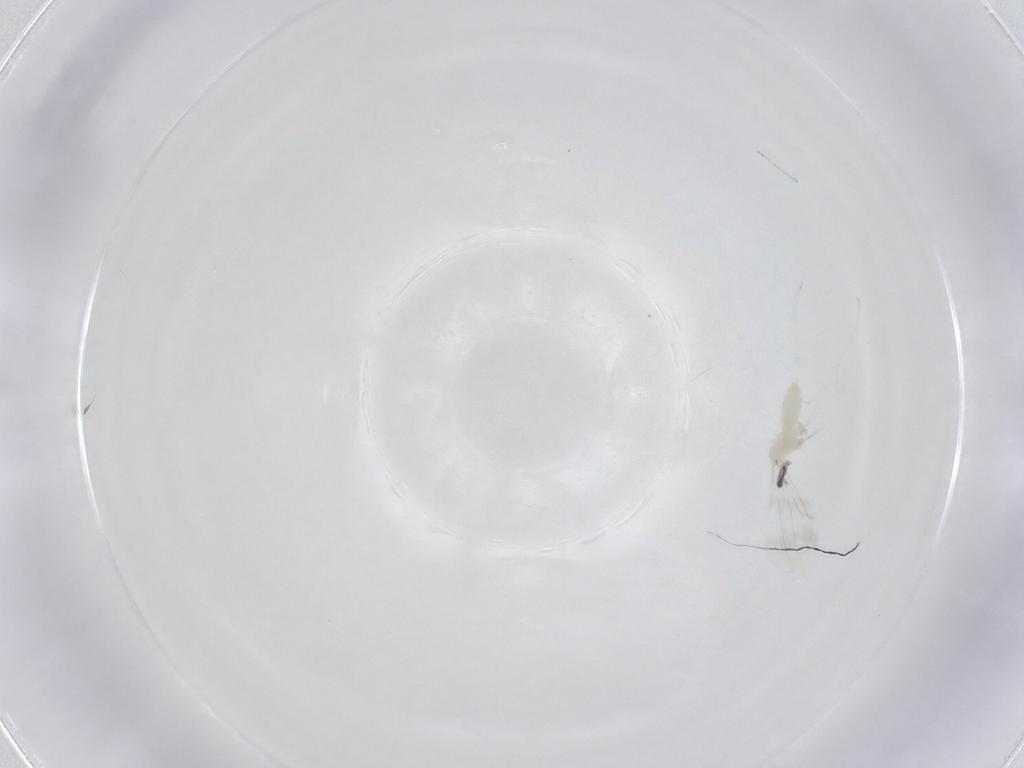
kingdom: Animalia
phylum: Arthropoda
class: Insecta
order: Diptera
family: Cecidomyiidae
